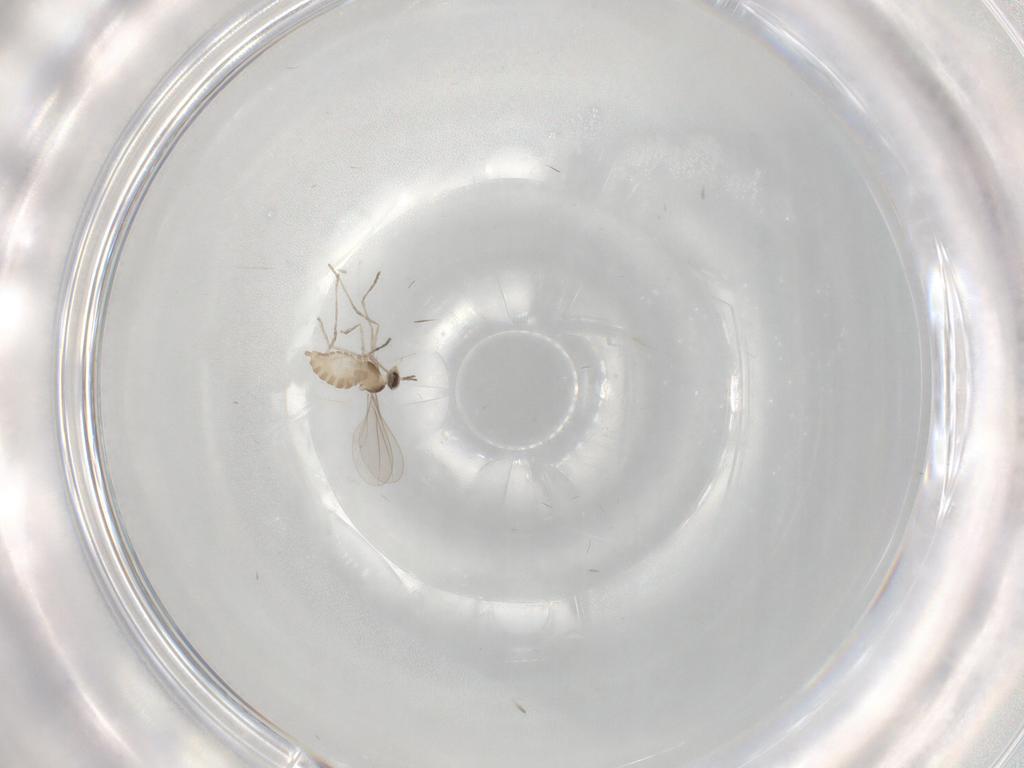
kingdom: Animalia
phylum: Arthropoda
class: Insecta
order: Diptera
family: Cecidomyiidae
